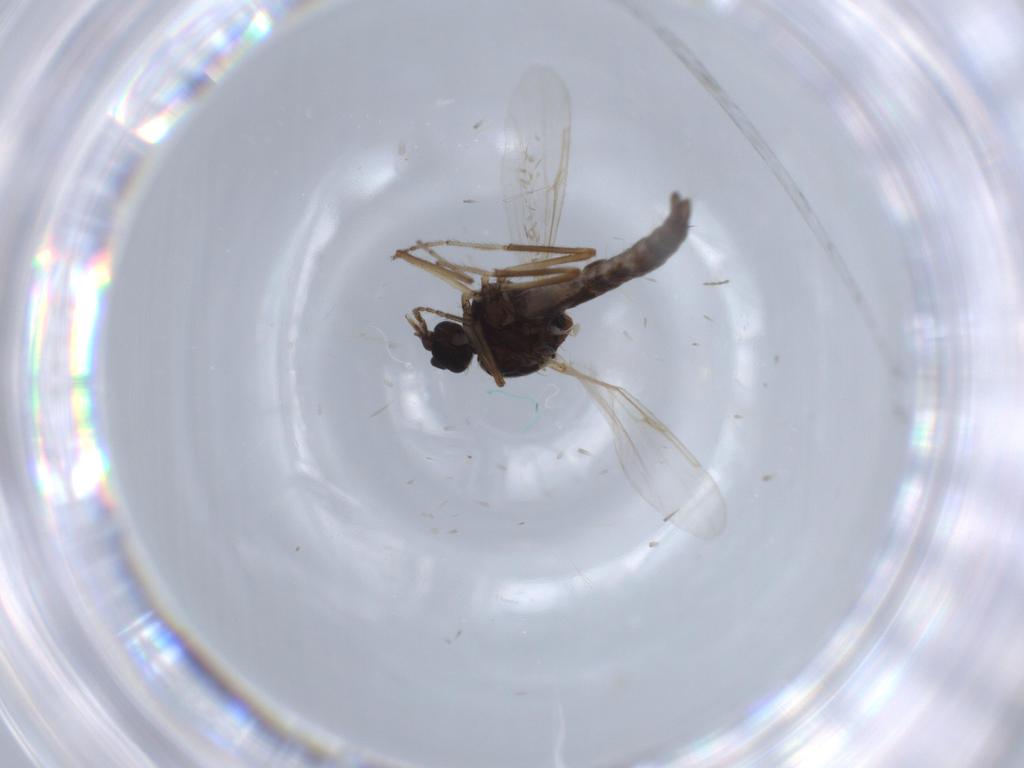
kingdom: Animalia
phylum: Arthropoda
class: Insecta
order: Diptera
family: Ceratopogonidae
